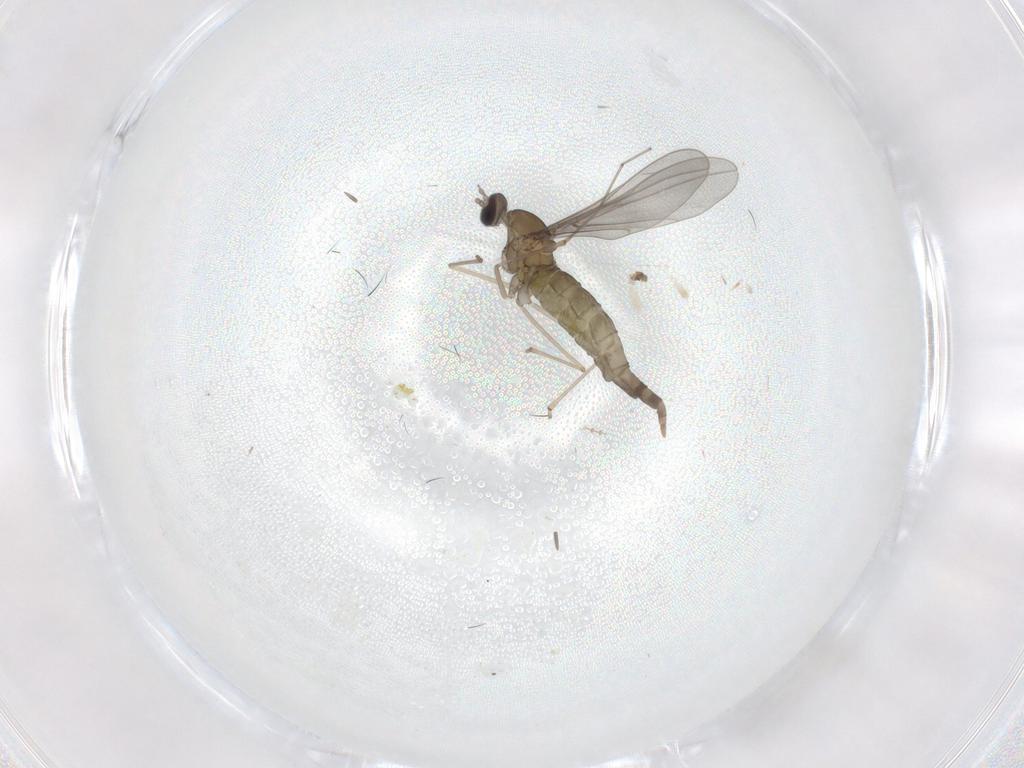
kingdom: Animalia
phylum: Arthropoda
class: Insecta
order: Diptera
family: Sciaridae
